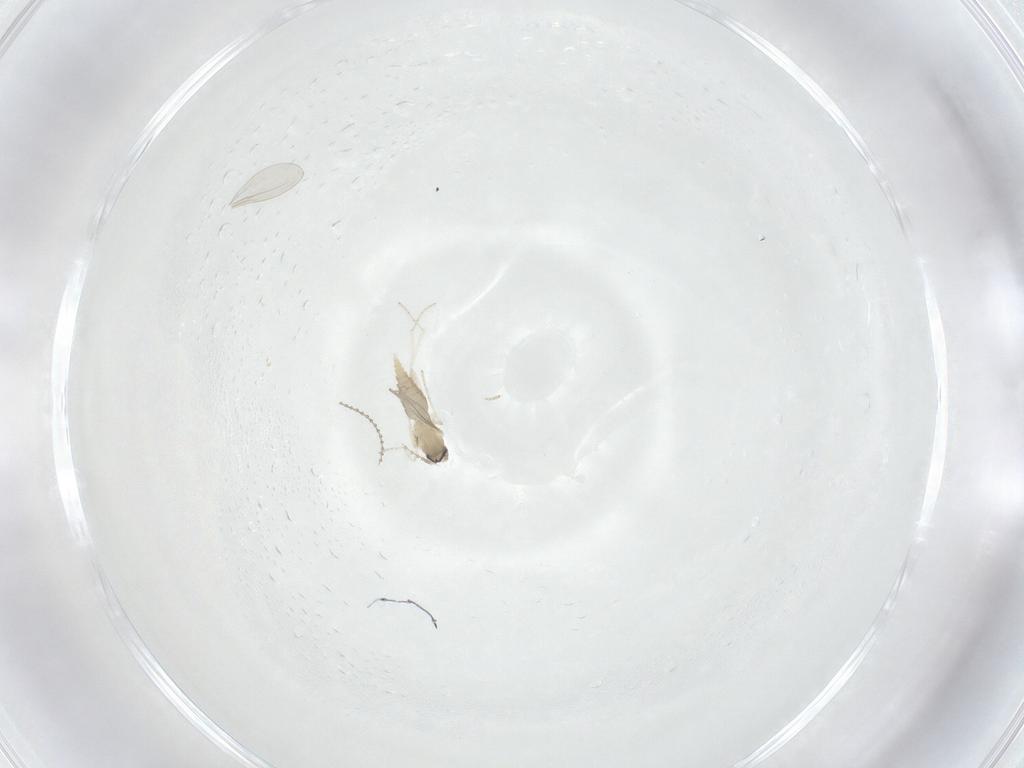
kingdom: Animalia
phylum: Arthropoda
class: Insecta
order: Diptera
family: Cecidomyiidae
